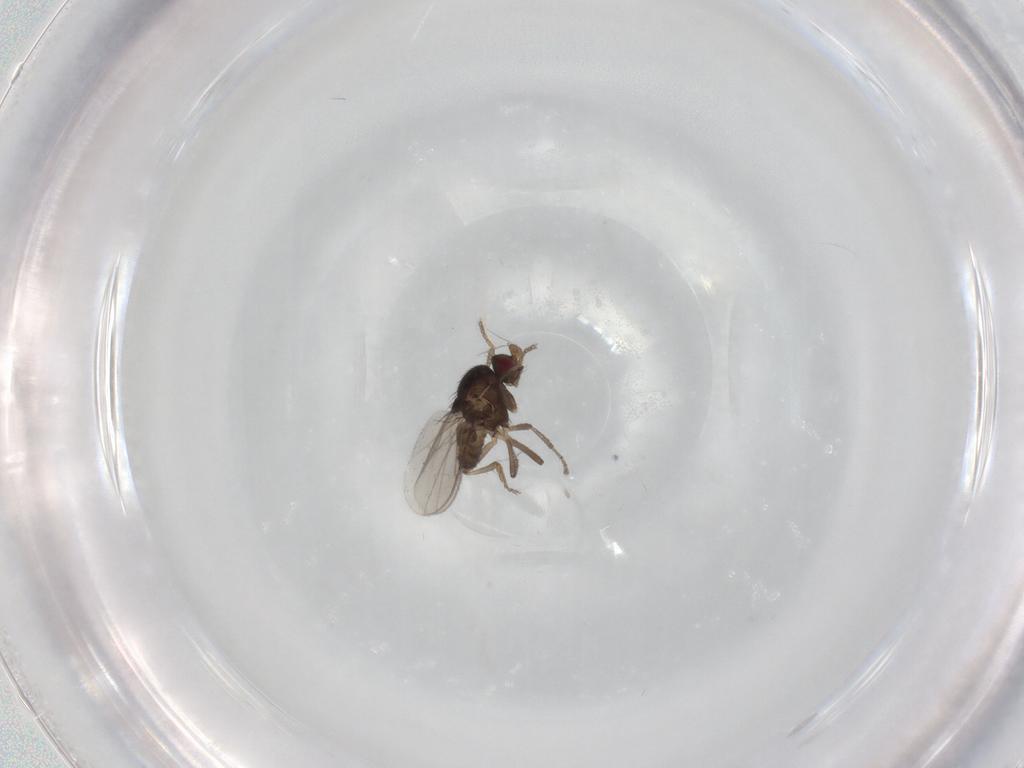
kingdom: Animalia
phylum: Arthropoda
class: Insecta
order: Diptera
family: Sphaeroceridae
